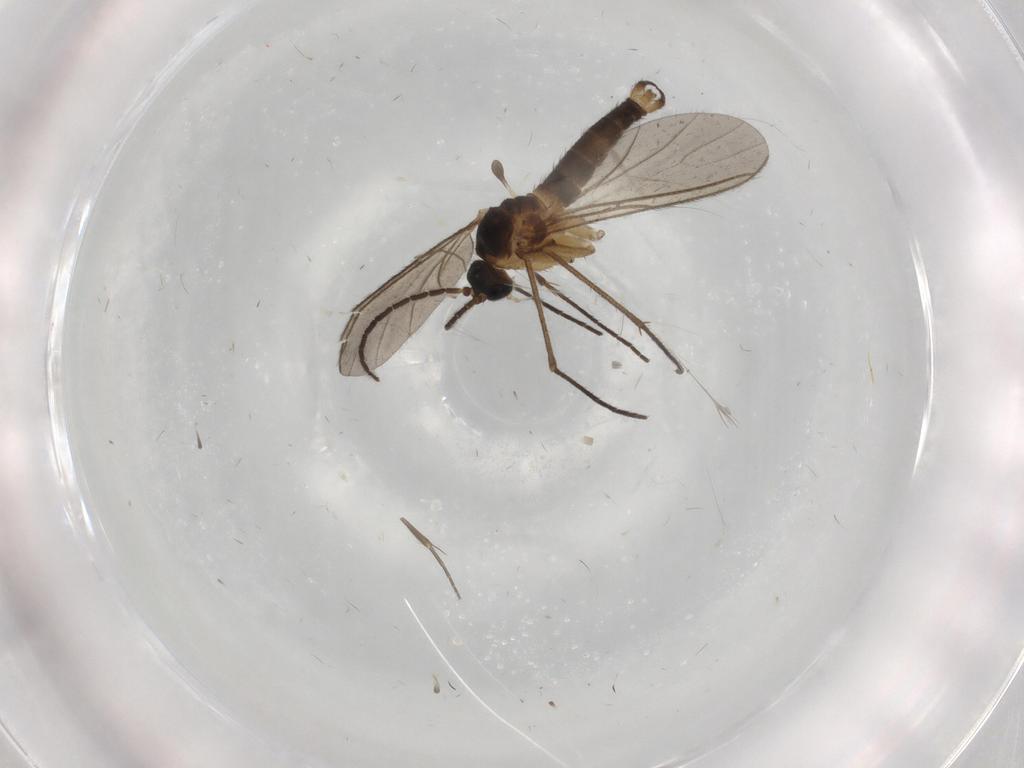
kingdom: Animalia
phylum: Arthropoda
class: Insecta
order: Diptera
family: Sciaridae
